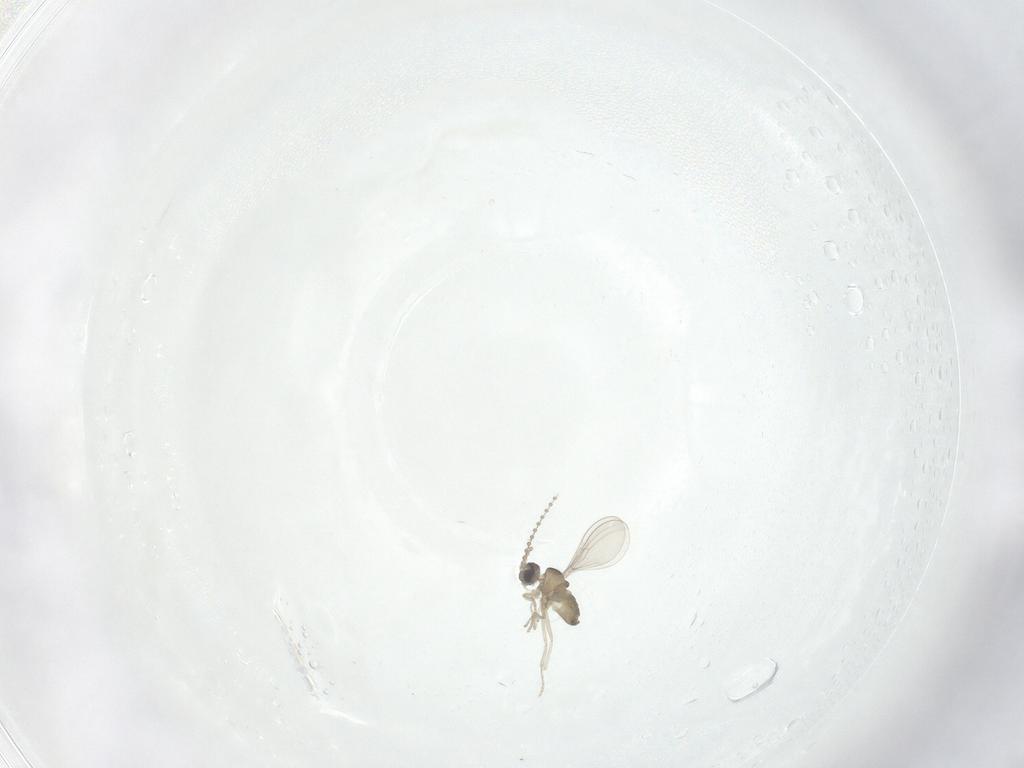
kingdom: Animalia
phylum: Arthropoda
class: Insecta
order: Diptera
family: Cecidomyiidae
